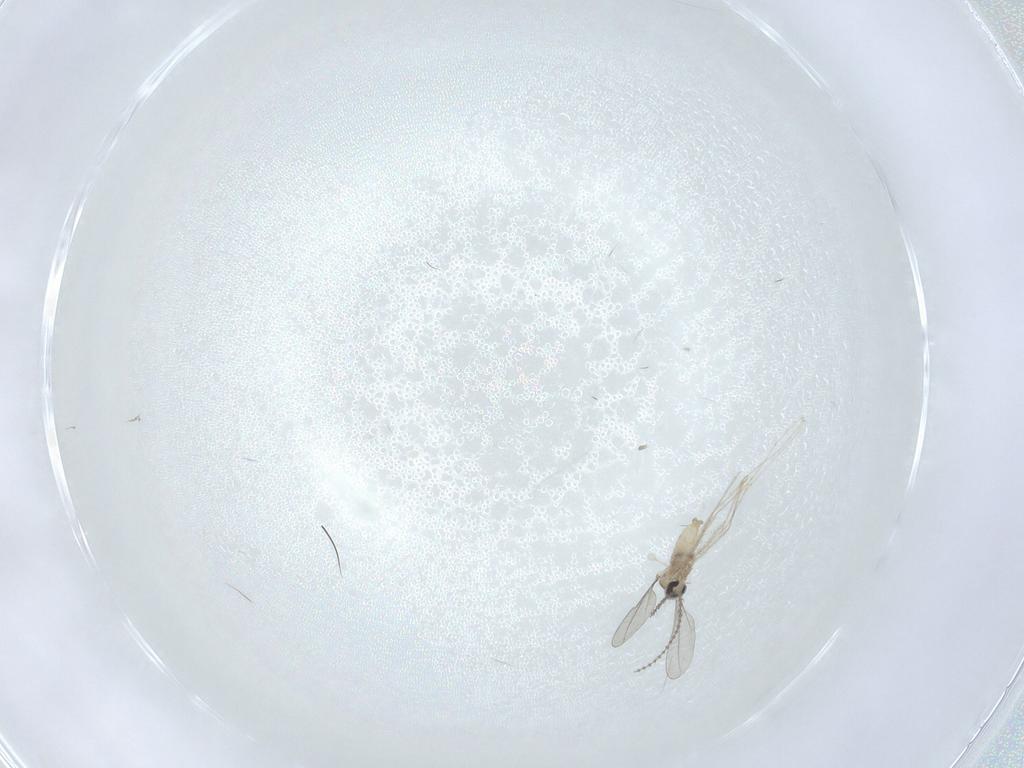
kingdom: Animalia
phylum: Arthropoda
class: Insecta
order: Diptera
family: Cecidomyiidae
